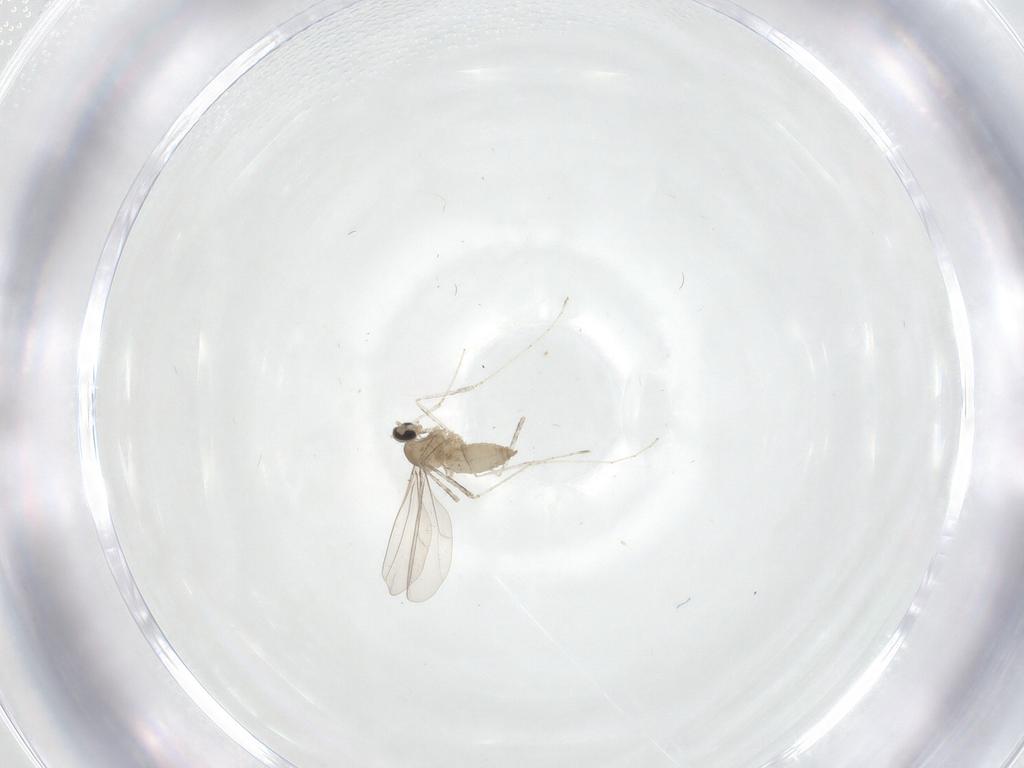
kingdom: Animalia
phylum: Arthropoda
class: Insecta
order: Diptera
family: Cecidomyiidae
